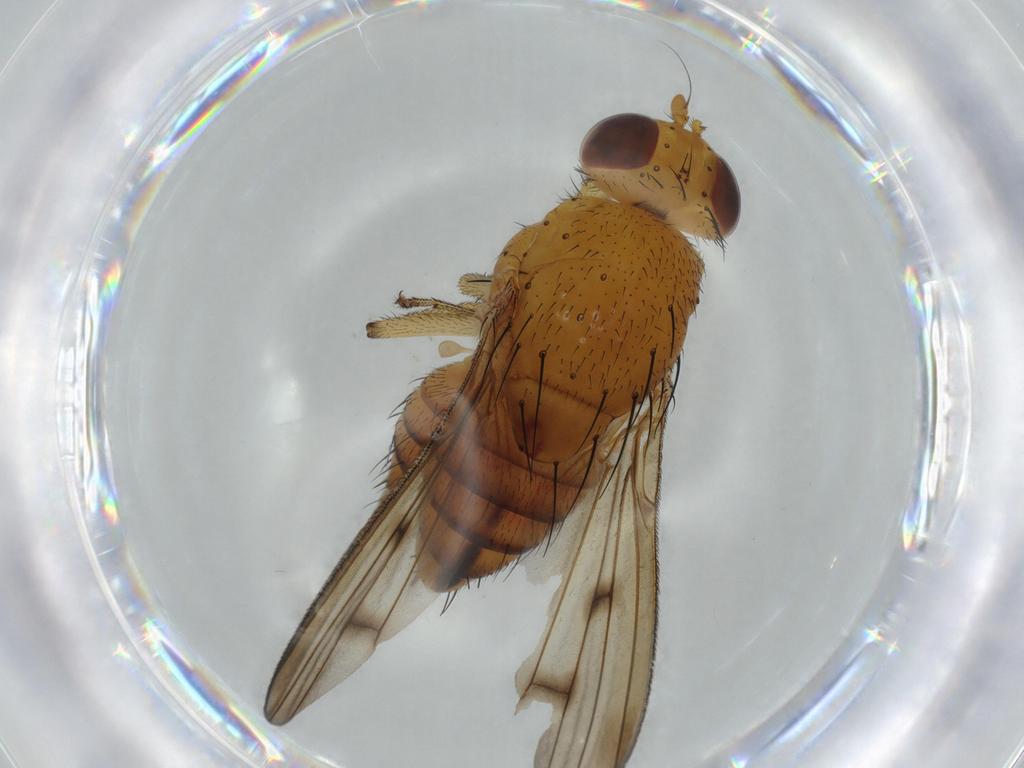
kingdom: Animalia
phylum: Arthropoda
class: Insecta
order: Diptera
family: Cecidomyiidae
